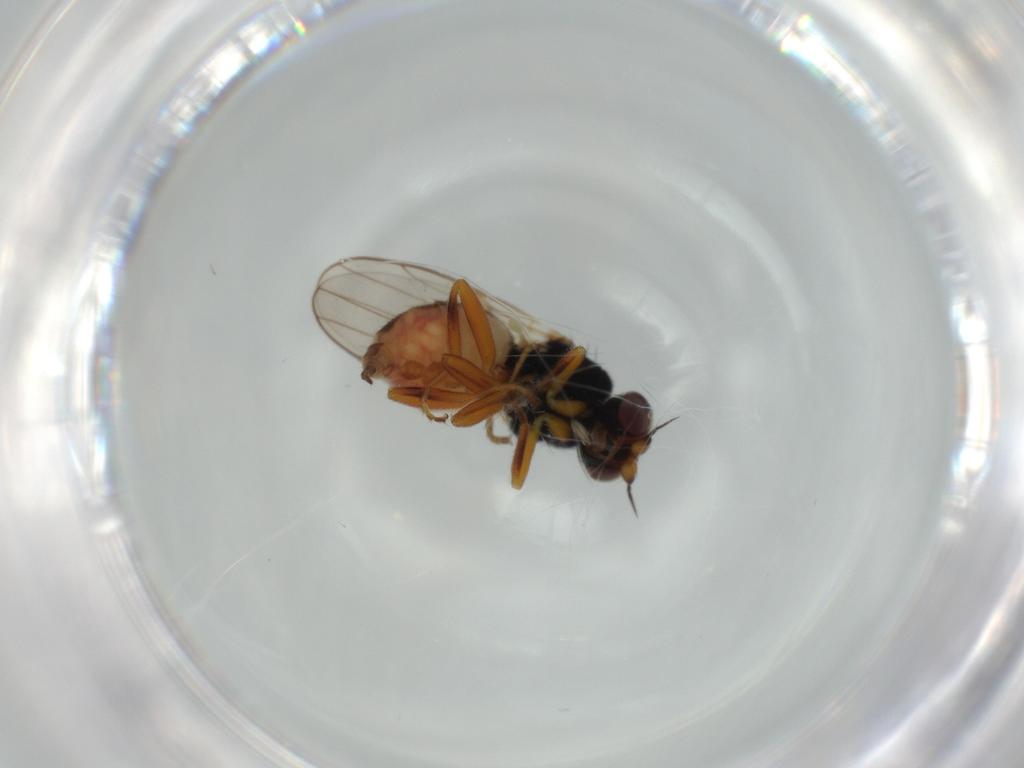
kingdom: Animalia
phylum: Arthropoda
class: Insecta
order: Diptera
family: Chloropidae
